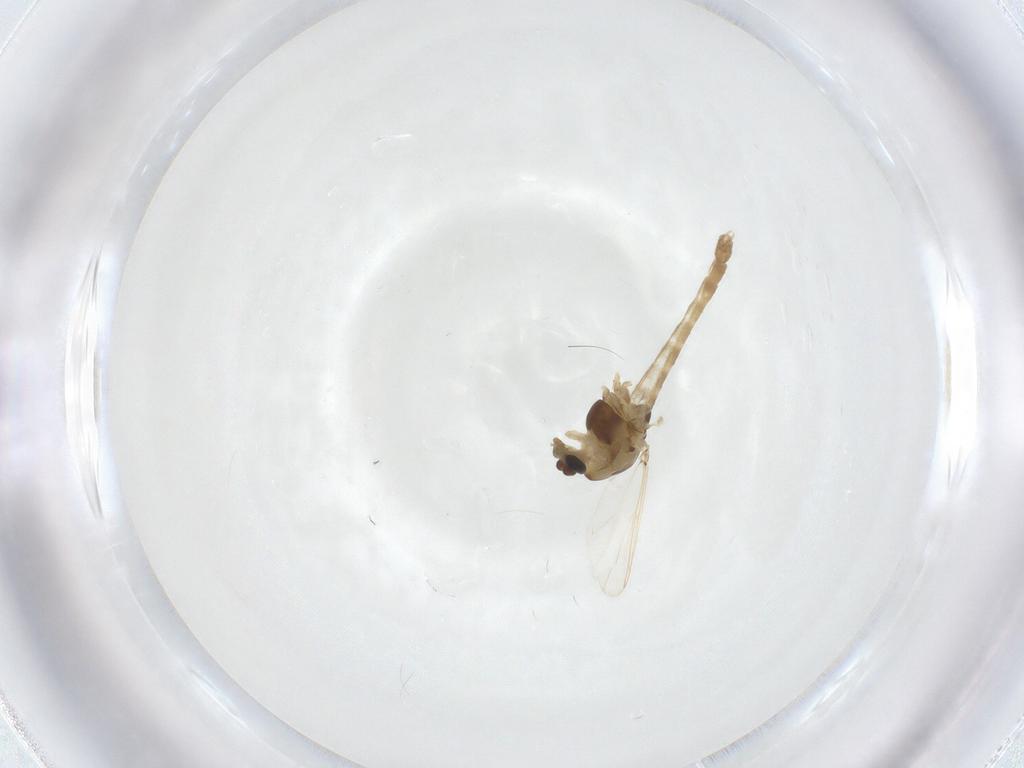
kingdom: Animalia
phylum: Arthropoda
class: Insecta
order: Diptera
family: Chironomidae
